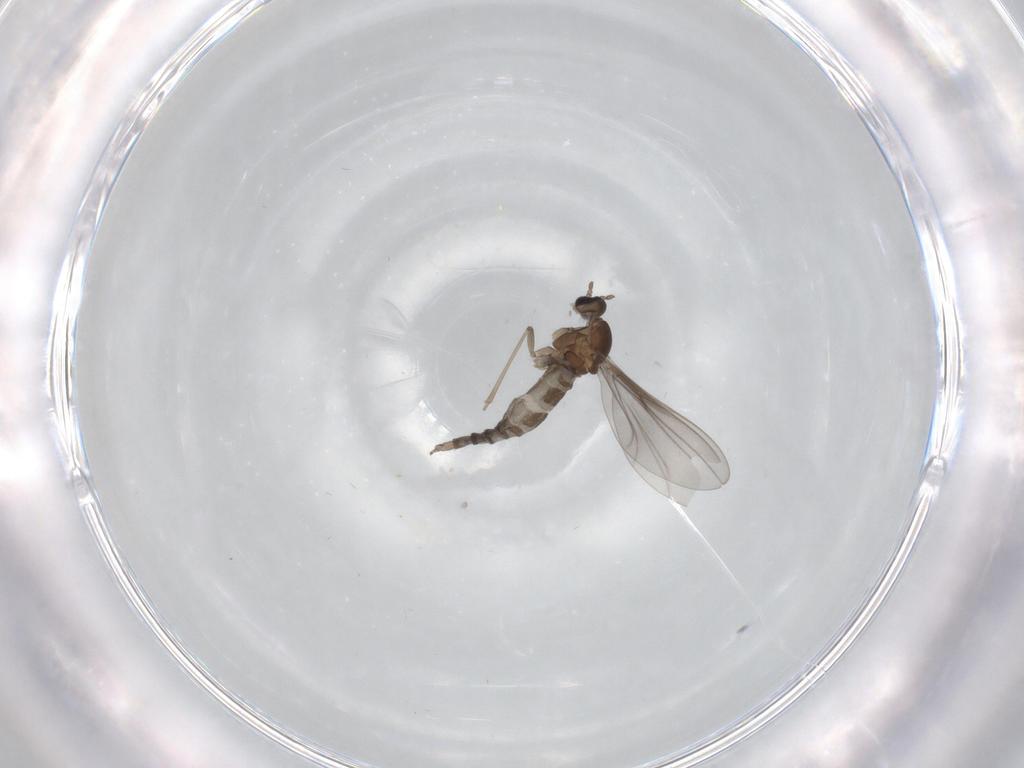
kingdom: Animalia
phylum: Arthropoda
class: Insecta
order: Diptera
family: Cecidomyiidae
